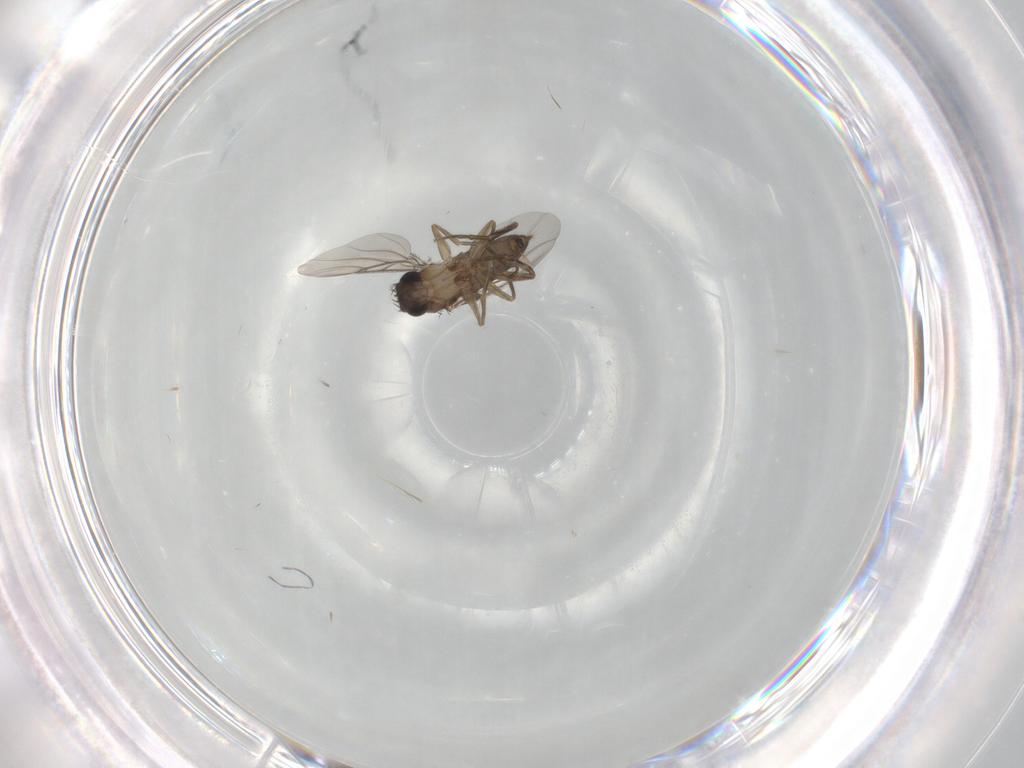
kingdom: Animalia
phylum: Arthropoda
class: Insecta
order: Diptera
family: Phoridae
